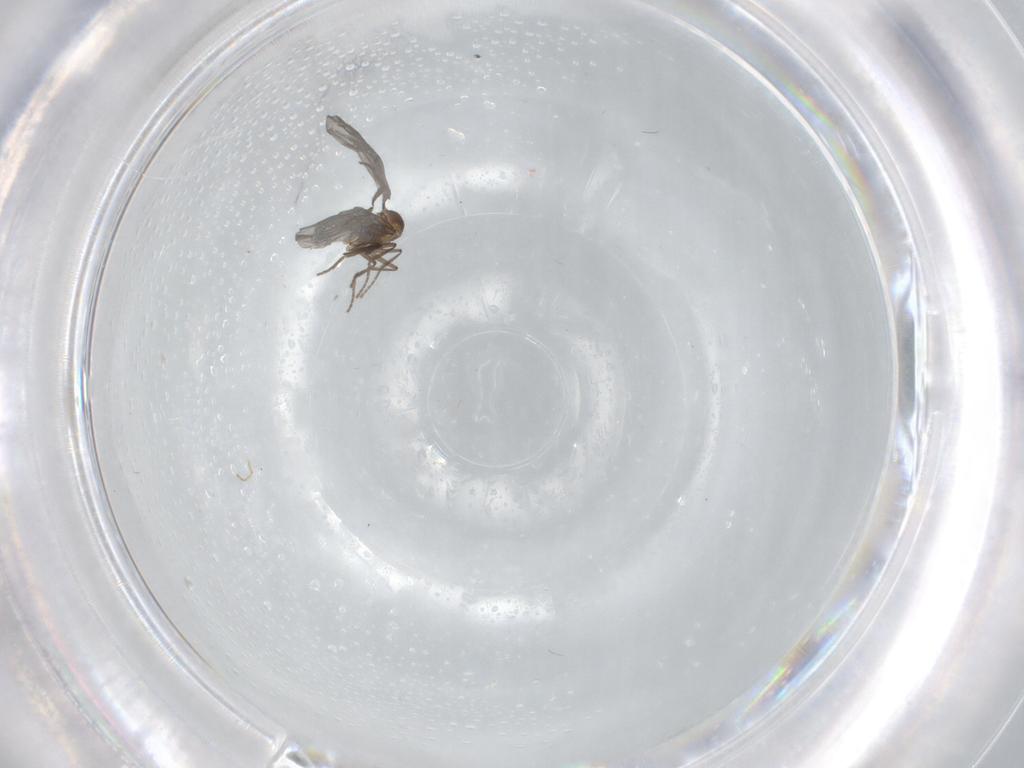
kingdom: Animalia
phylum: Arthropoda
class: Insecta
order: Diptera
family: Phoridae
